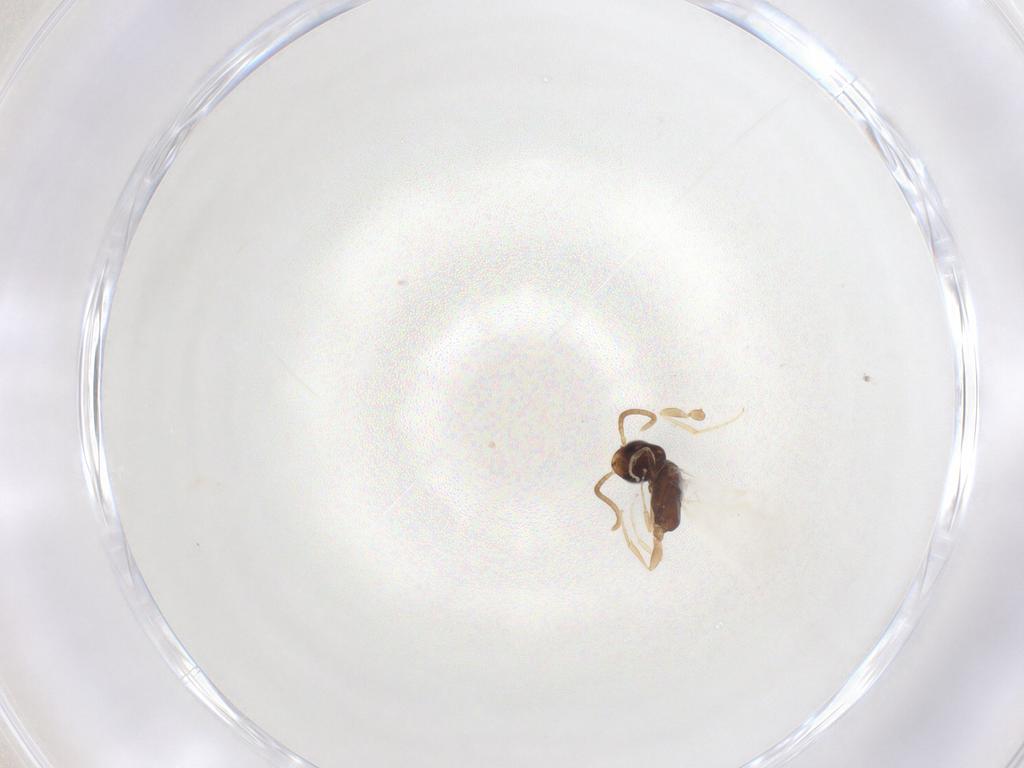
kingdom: Animalia
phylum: Arthropoda
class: Insecta
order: Hymenoptera
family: Bethylidae
